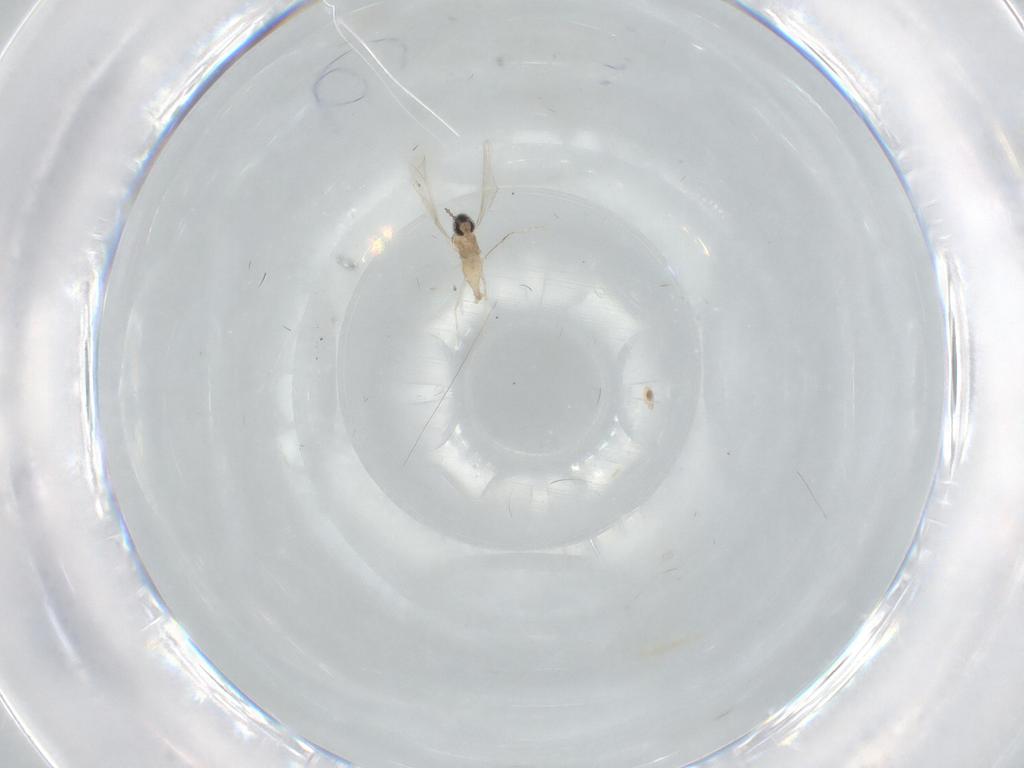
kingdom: Animalia
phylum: Arthropoda
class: Insecta
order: Diptera
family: Cecidomyiidae
